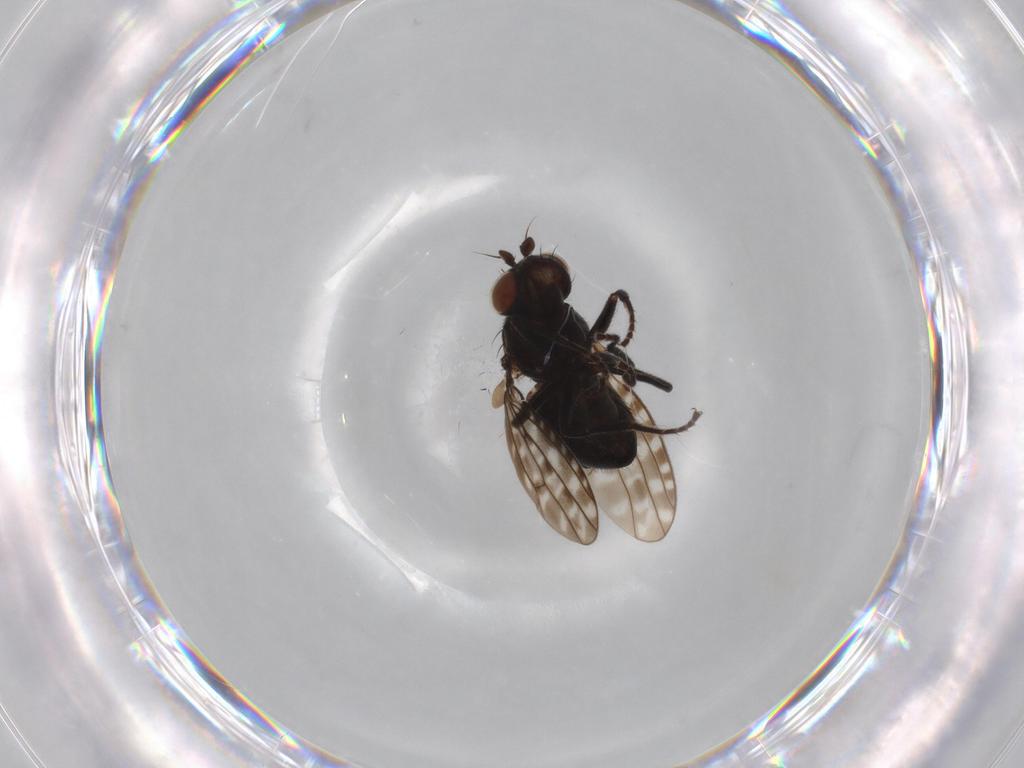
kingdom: Animalia
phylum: Arthropoda
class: Insecta
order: Diptera
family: Ephydridae
